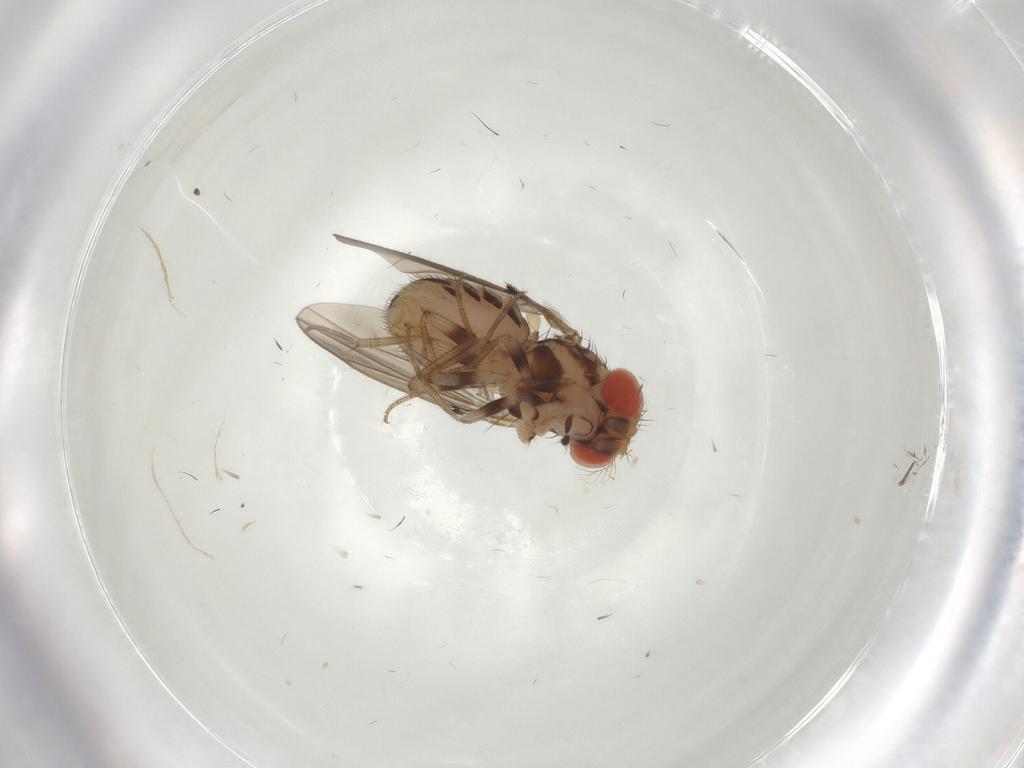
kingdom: Animalia
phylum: Arthropoda
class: Insecta
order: Diptera
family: Drosophilidae
